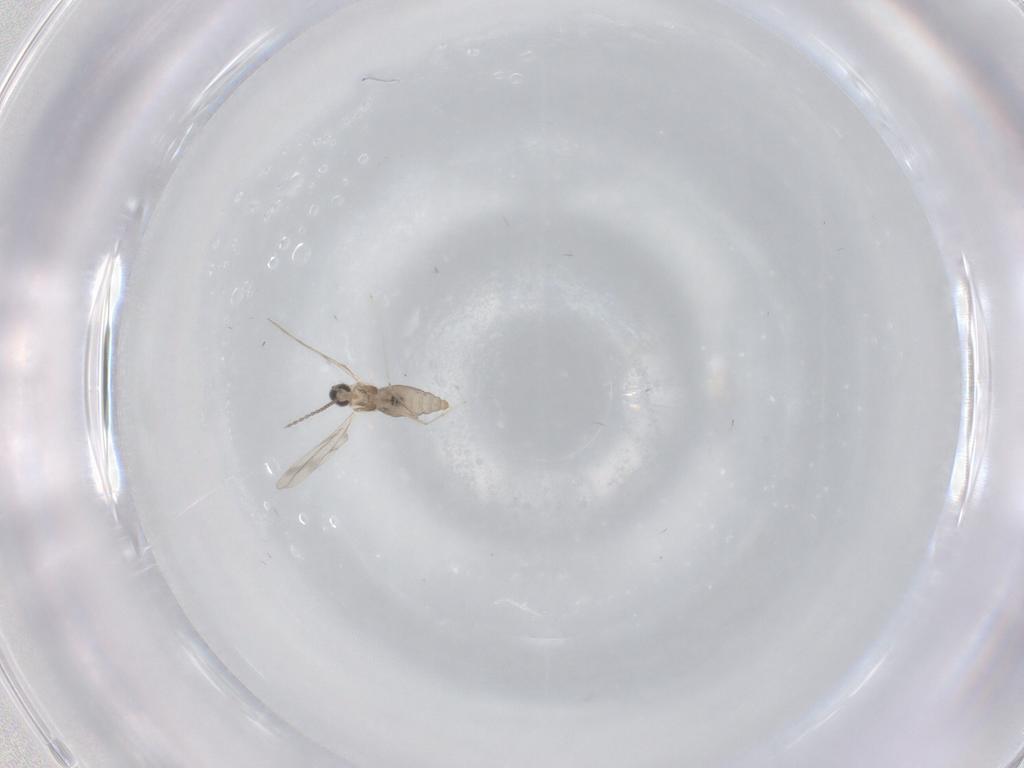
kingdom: Animalia
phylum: Arthropoda
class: Insecta
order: Diptera
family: Cecidomyiidae
